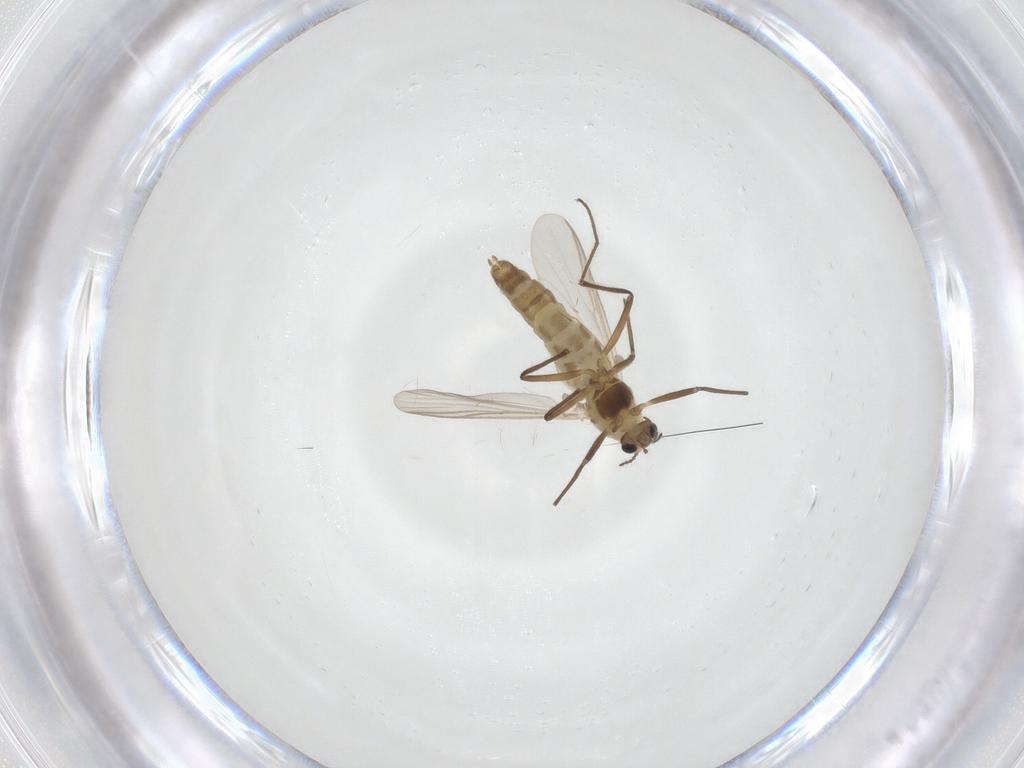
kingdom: Animalia
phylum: Arthropoda
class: Insecta
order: Diptera
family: Chironomidae
